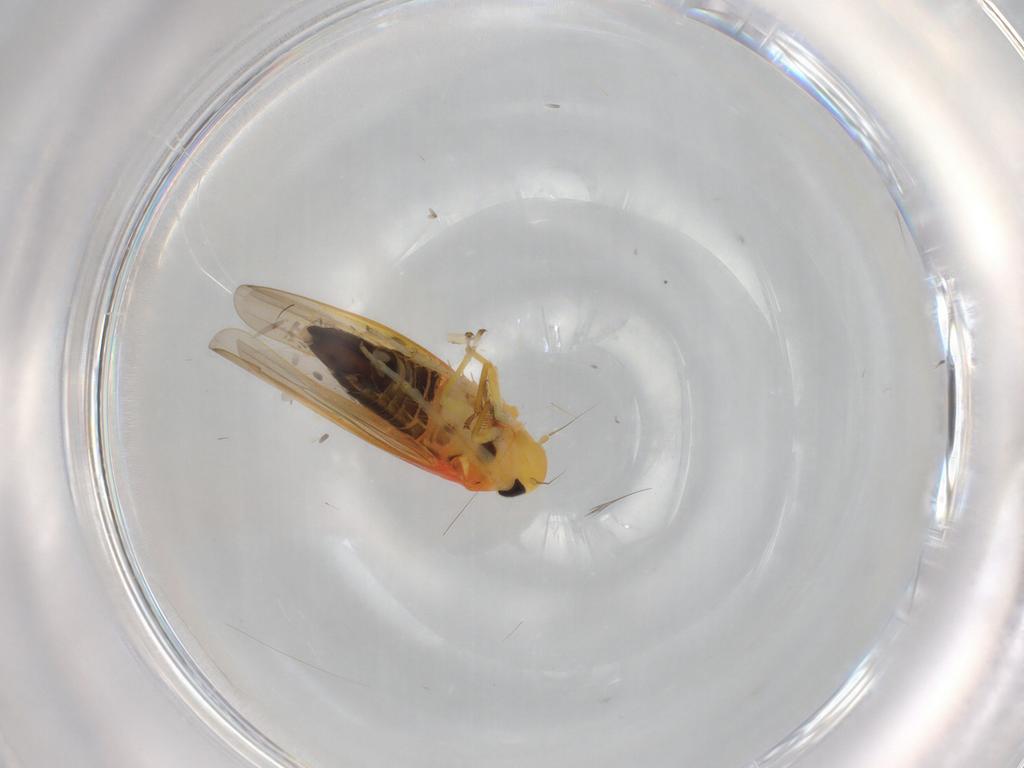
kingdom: Animalia
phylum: Arthropoda
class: Insecta
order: Hemiptera
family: Cicadellidae
